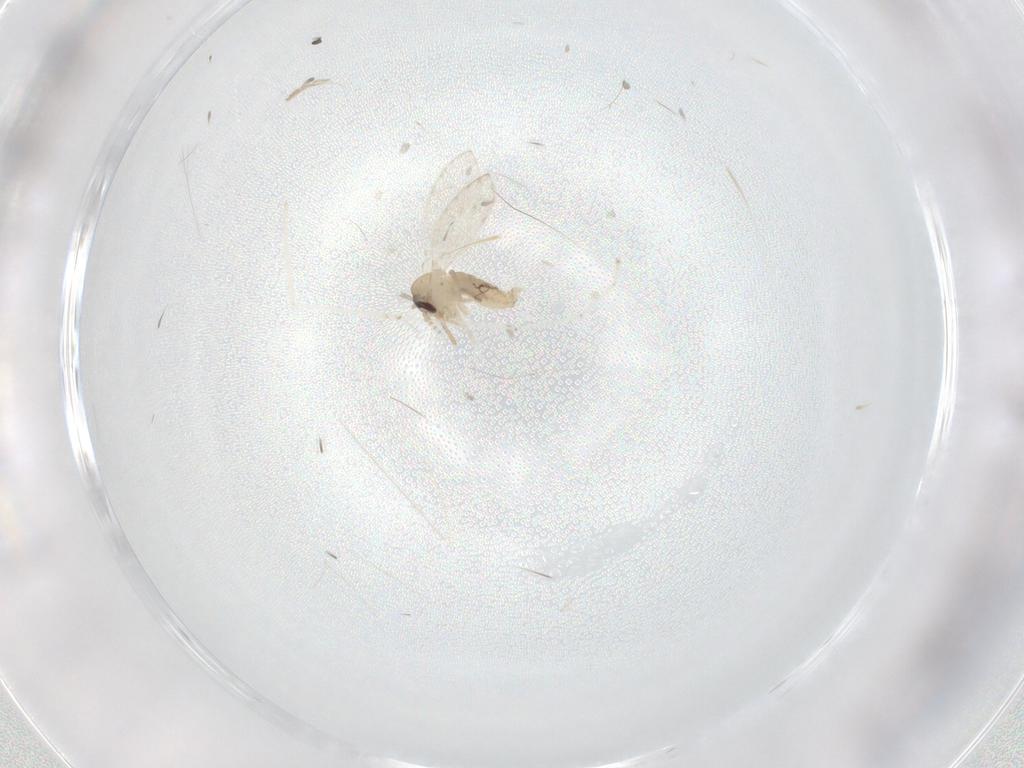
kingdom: Animalia
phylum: Arthropoda
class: Insecta
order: Diptera
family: Psychodidae
